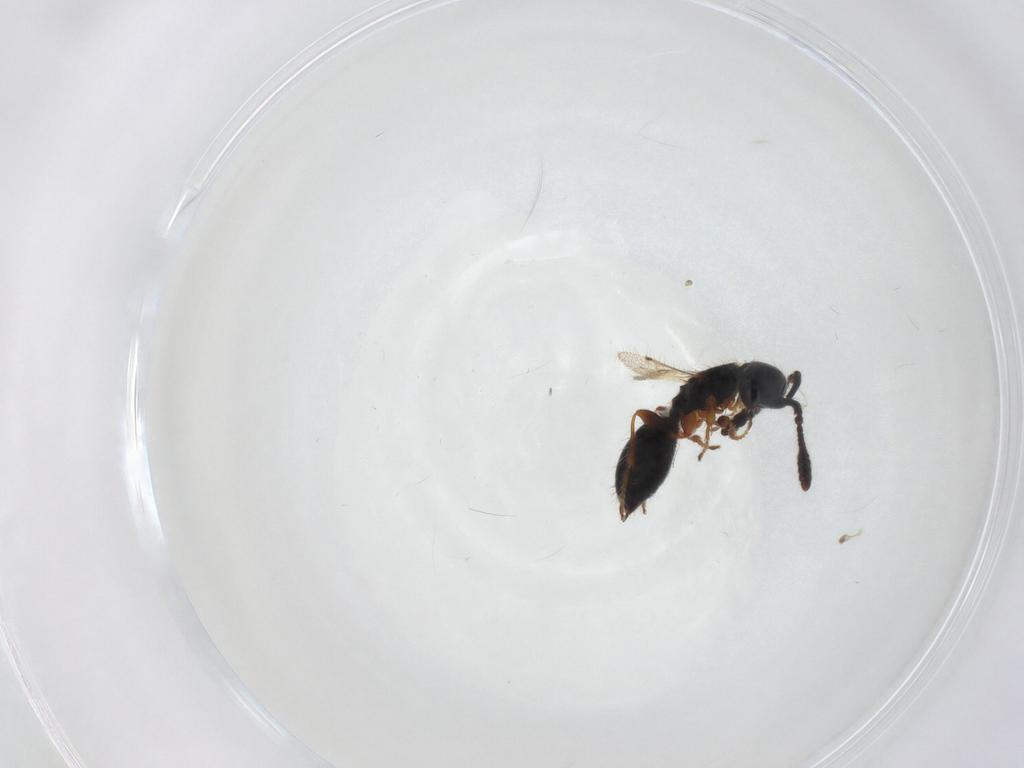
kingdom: Animalia
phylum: Arthropoda
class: Insecta
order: Hymenoptera
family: Diapriidae
